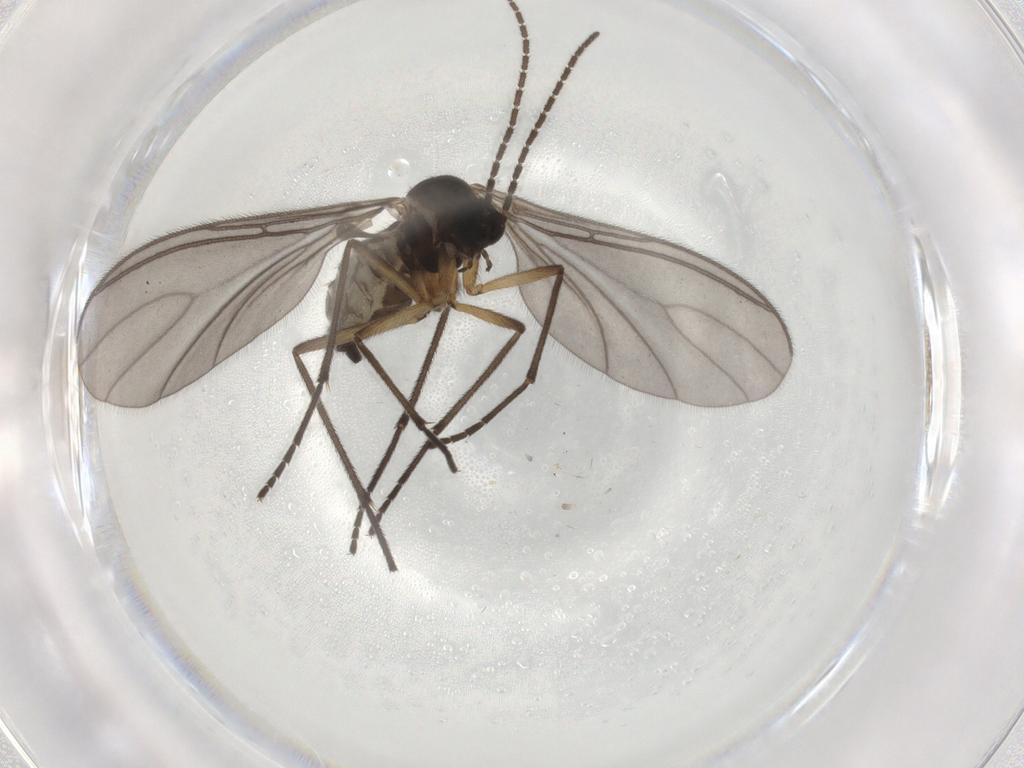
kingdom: Animalia
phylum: Arthropoda
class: Insecta
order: Diptera
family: Sciaridae
